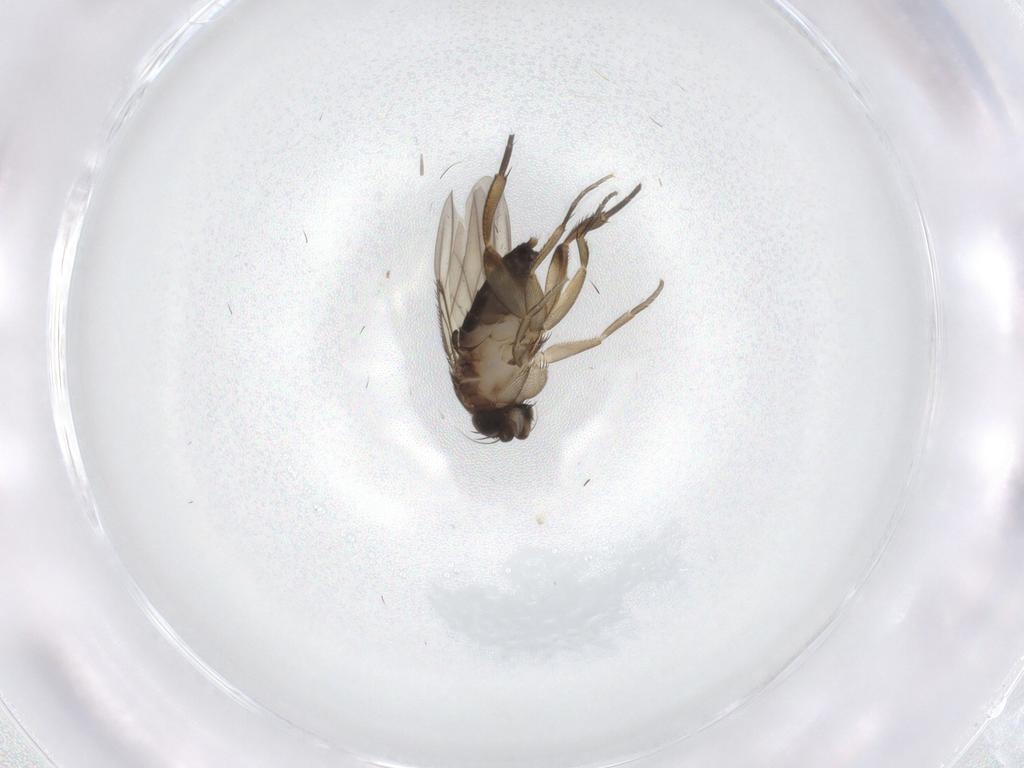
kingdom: Animalia
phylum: Arthropoda
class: Insecta
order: Diptera
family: Phoridae
